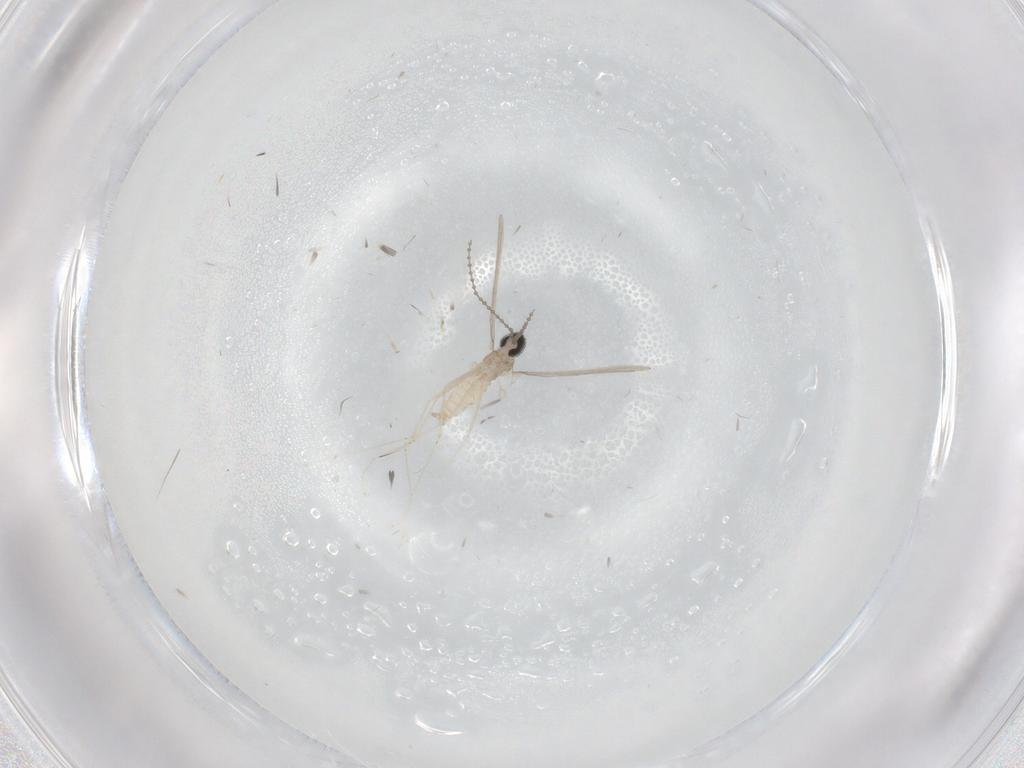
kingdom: Animalia
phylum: Arthropoda
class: Insecta
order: Diptera
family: Cecidomyiidae
